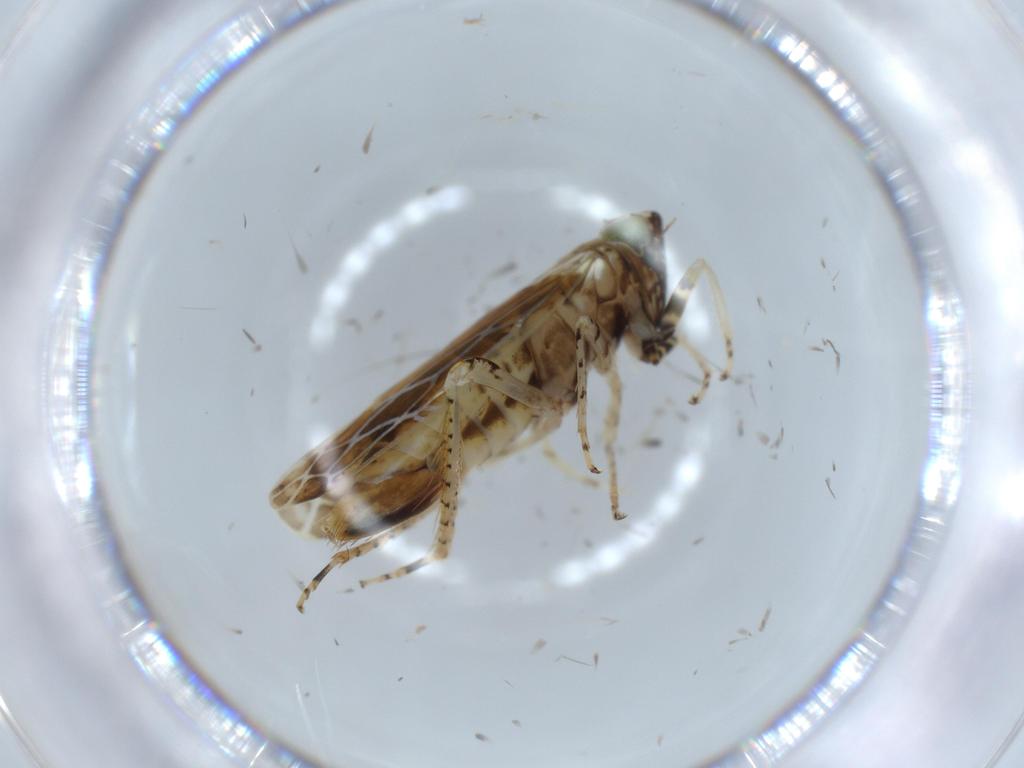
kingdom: Animalia
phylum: Arthropoda
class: Insecta
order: Hemiptera
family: Cicadellidae
